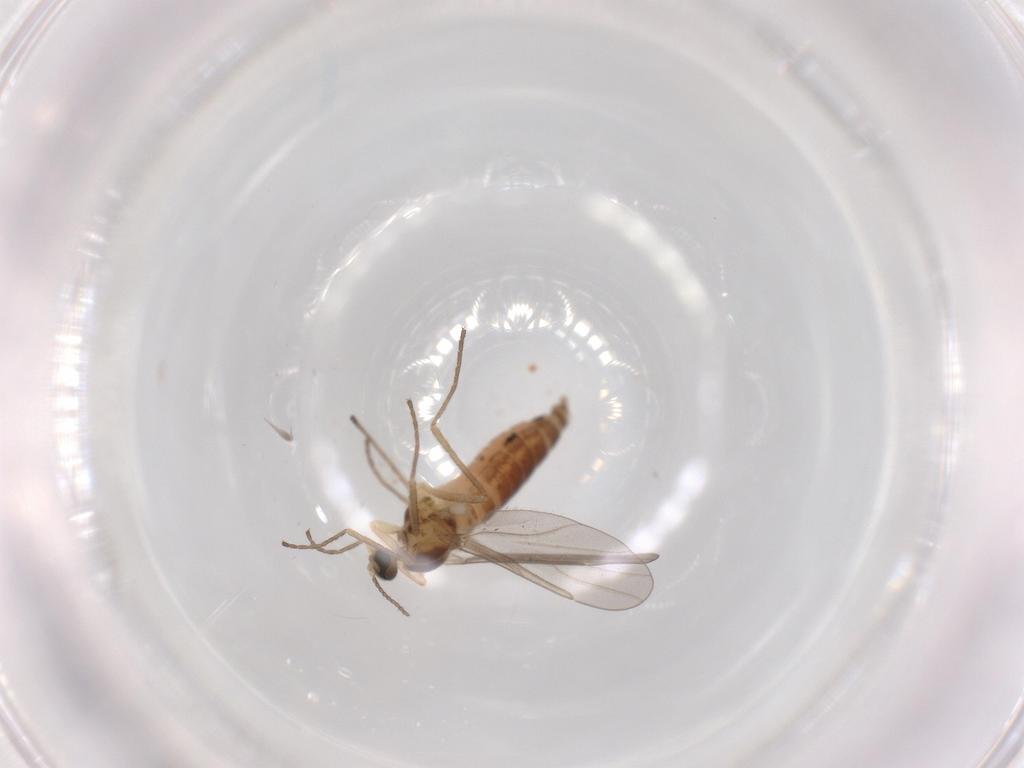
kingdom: Animalia
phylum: Arthropoda
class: Insecta
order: Diptera
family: Cecidomyiidae
